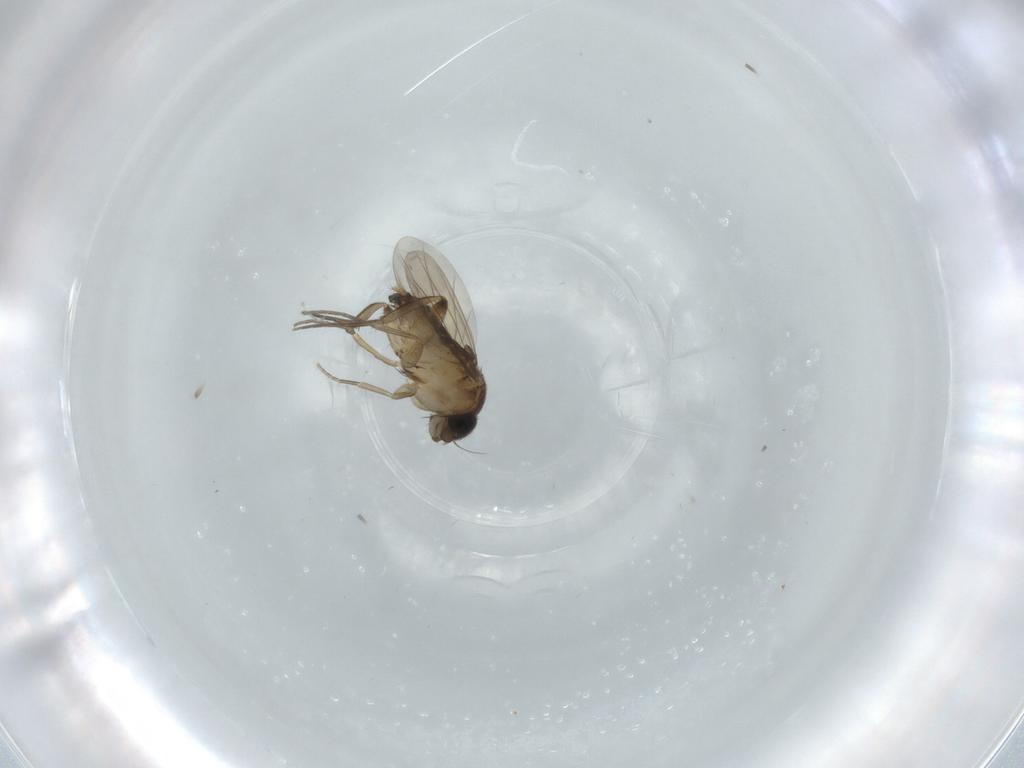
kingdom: Animalia
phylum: Arthropoda
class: Insecta
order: Diptera
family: Phoridae
